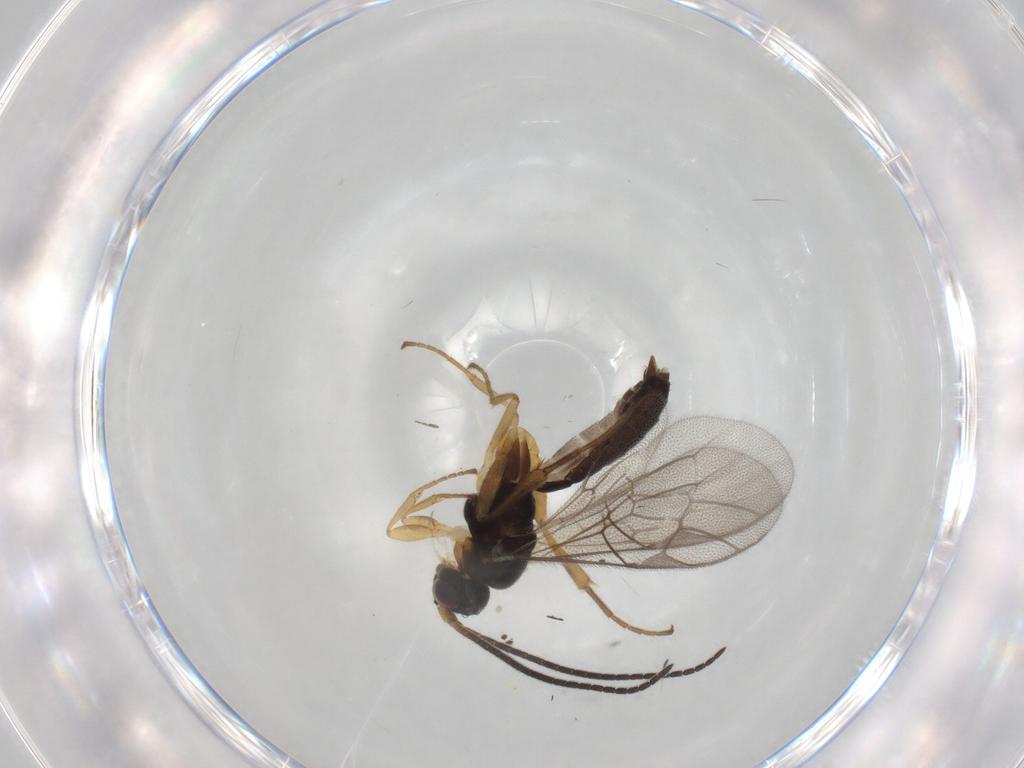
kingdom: Animalia
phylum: Arthropoda
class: Insecta
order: Hymenoptera
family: Ichneumonidae
